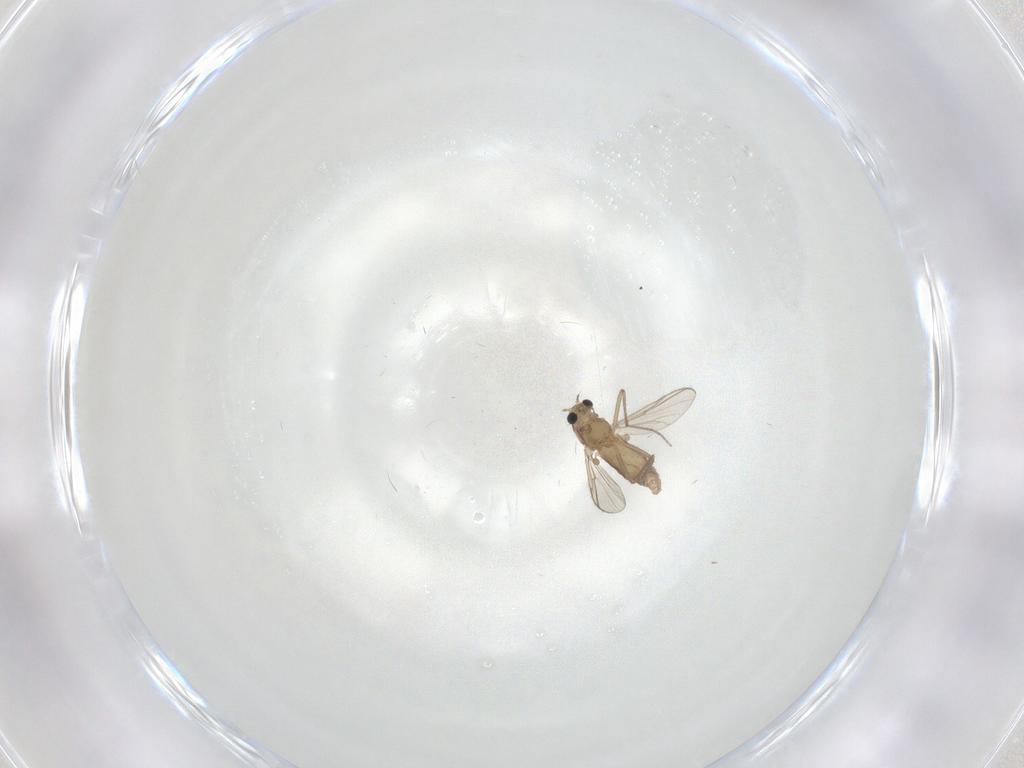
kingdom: Animalia
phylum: Arthropoda
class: Insecta
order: Diptera
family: Chironomidae
